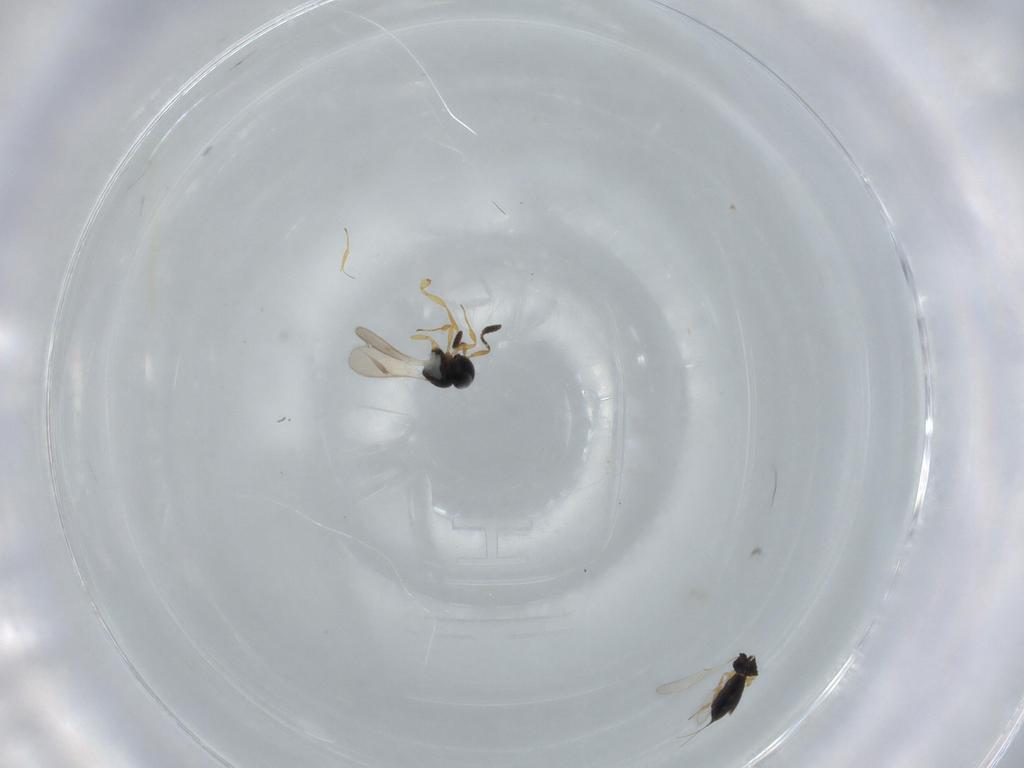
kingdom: Animalia
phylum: Arthropoda
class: Insecta
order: Hymenoptera
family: Scelionidae
